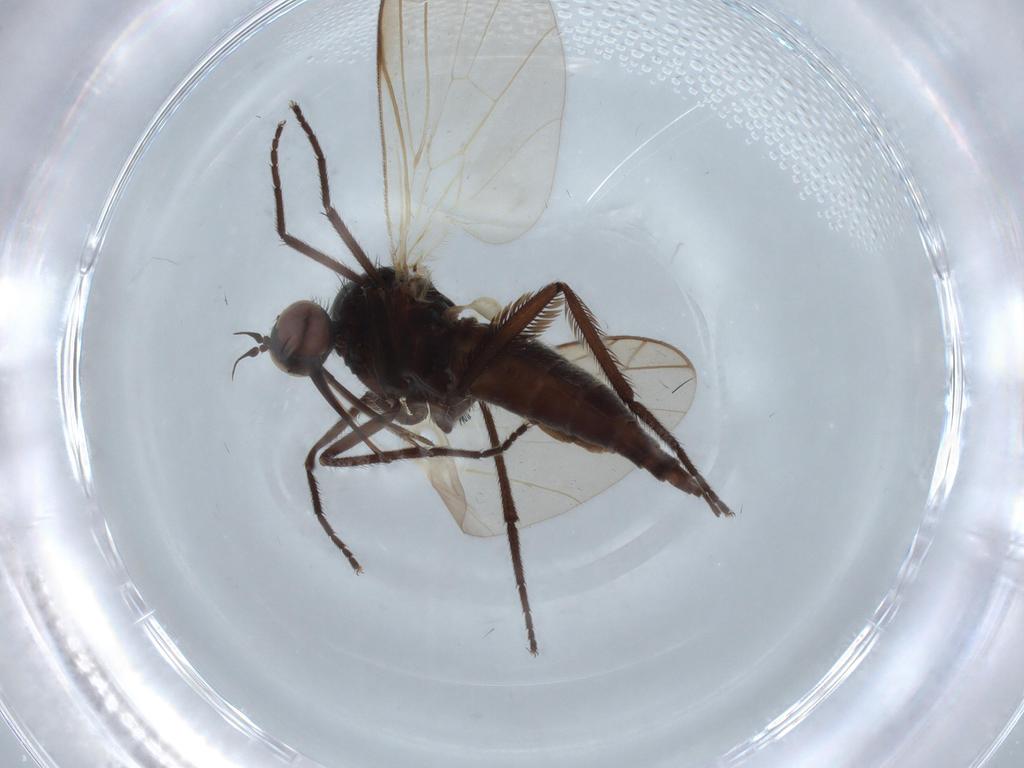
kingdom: Animalia
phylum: Arthropoda
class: Insecta
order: Diptera
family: Empididae
